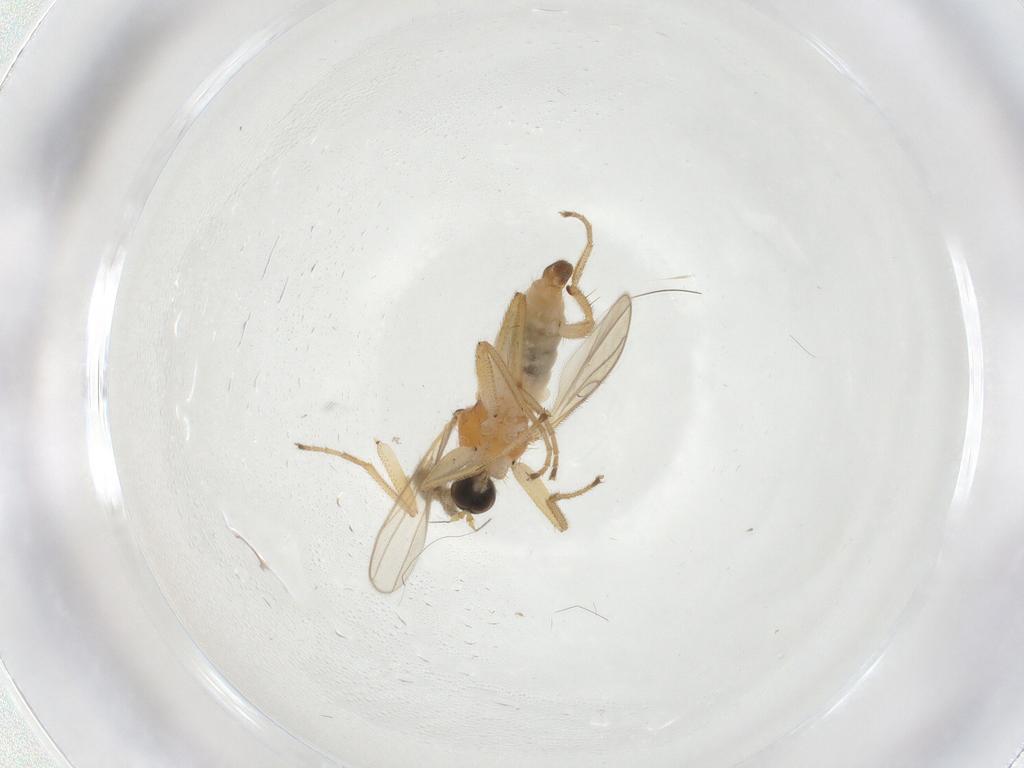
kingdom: Animalia
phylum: Arthropoda
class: Insecta
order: Diptera
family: Hybotidae
